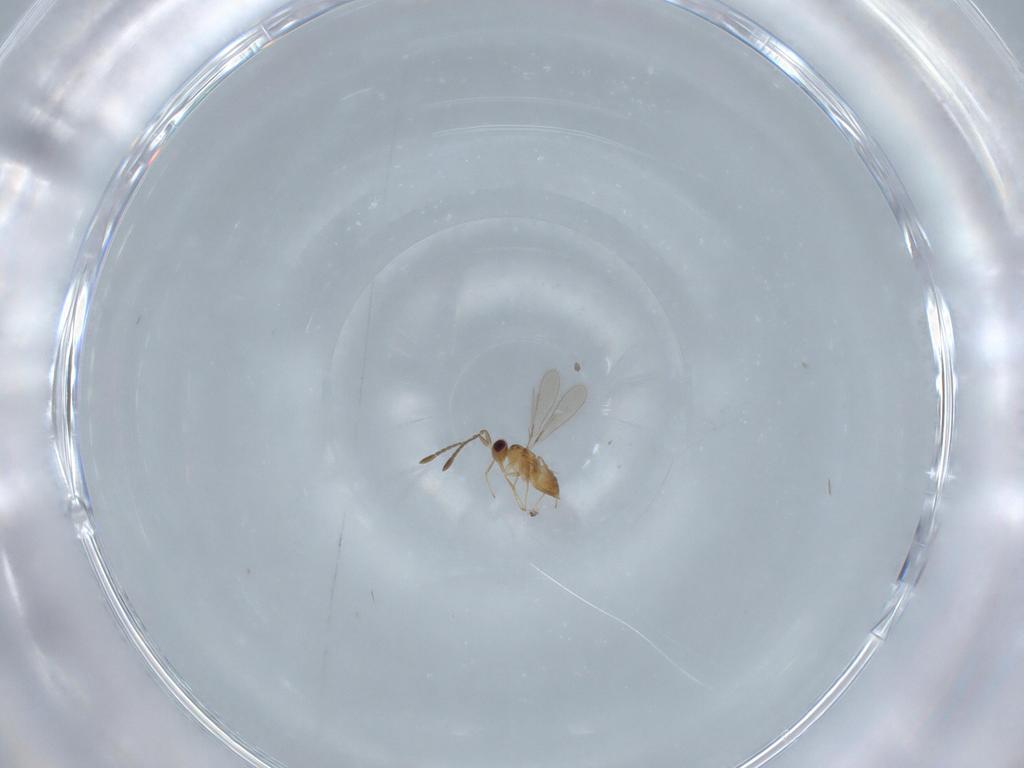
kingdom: Animalia
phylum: Arthropoda
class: Insecta
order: Hymenoptera
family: Mymaridae
